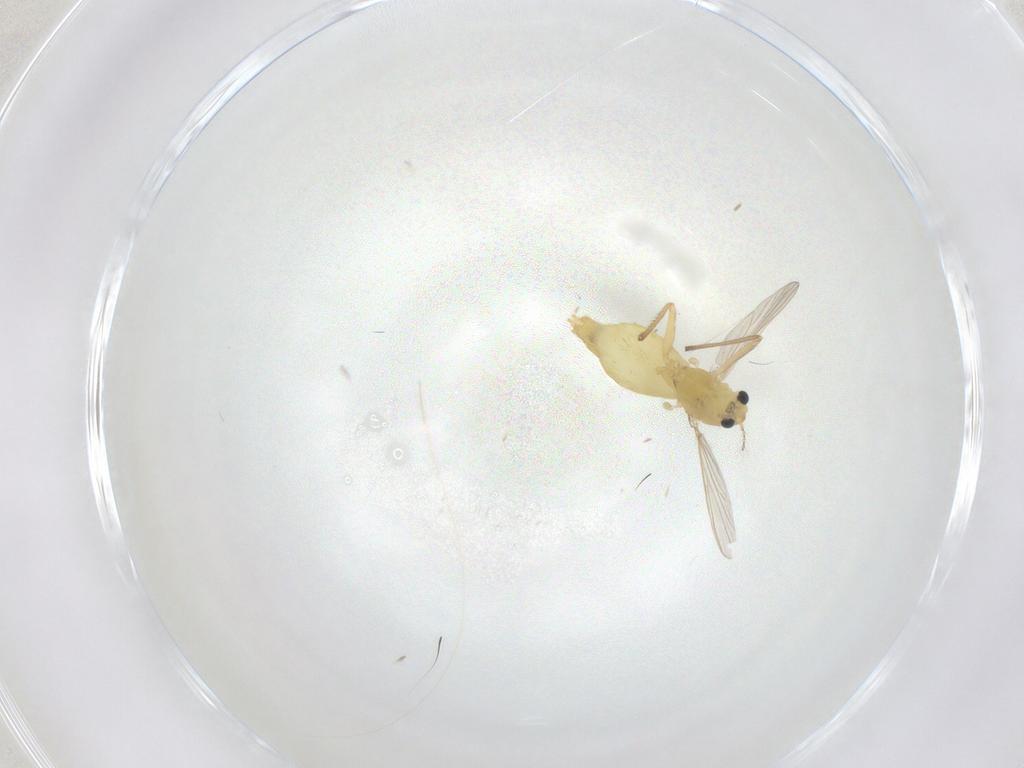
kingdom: Animalia
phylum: Arthropoda
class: Insecta
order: Diptera
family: Chironomidae
